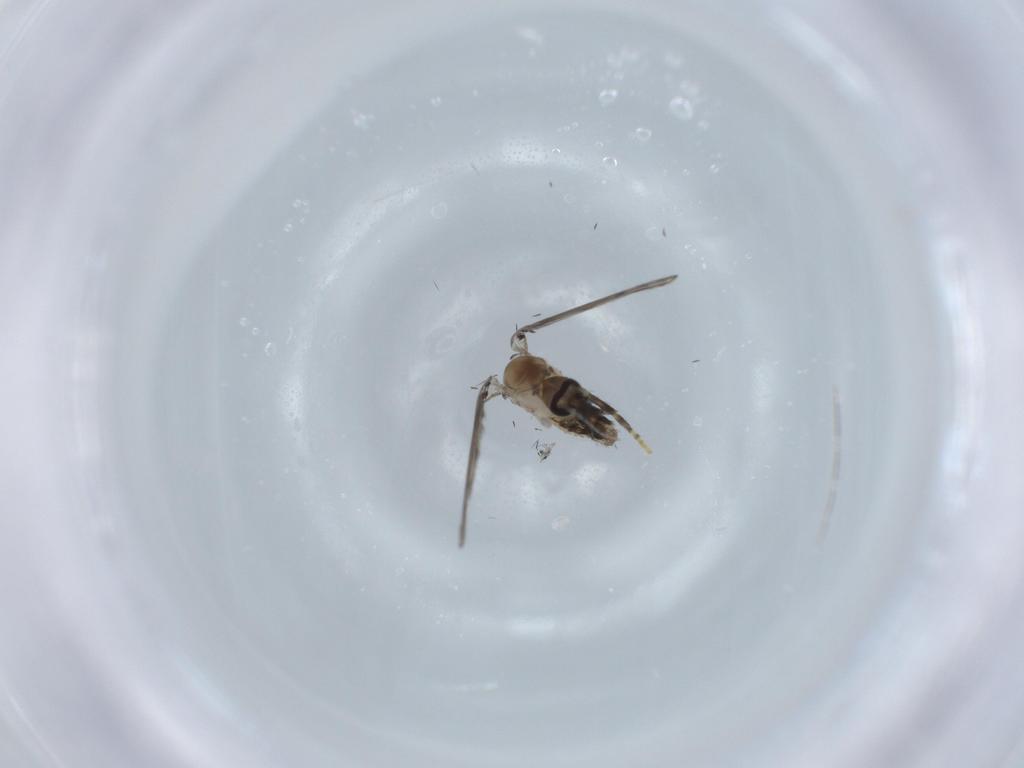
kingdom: Animalia
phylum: Arthropoda
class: Insecta
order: Diptera
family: Psychodidae
